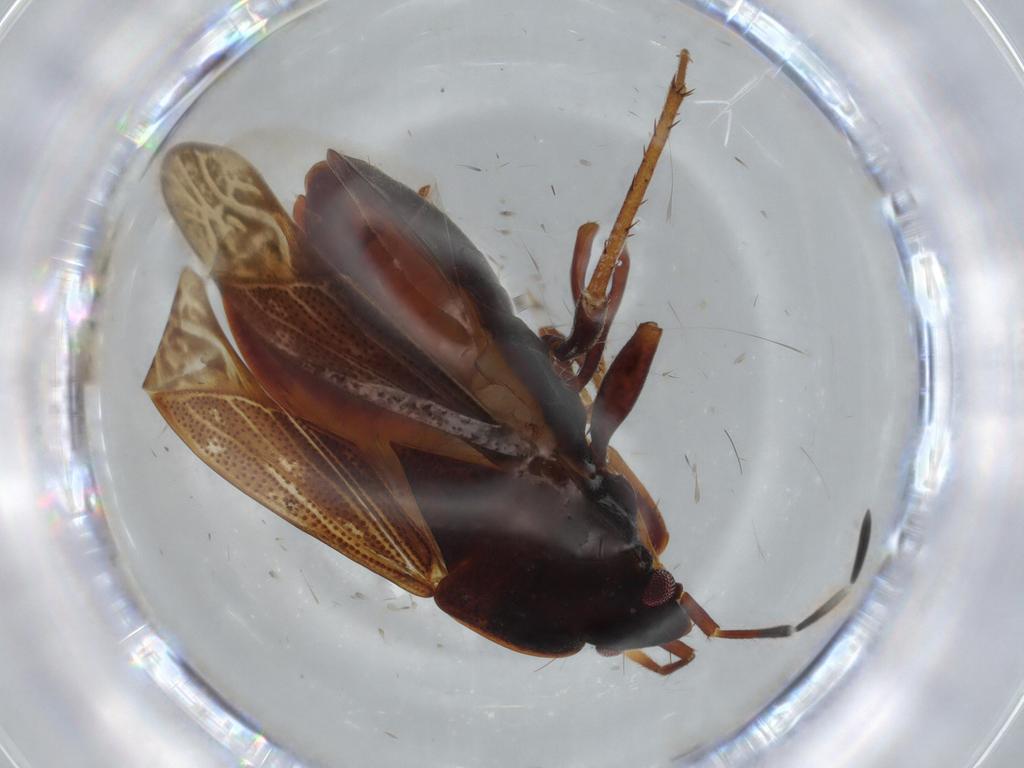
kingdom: Animalia
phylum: Arthropoda
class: Insecta
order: Hemiptera
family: Rhyparochromidae
